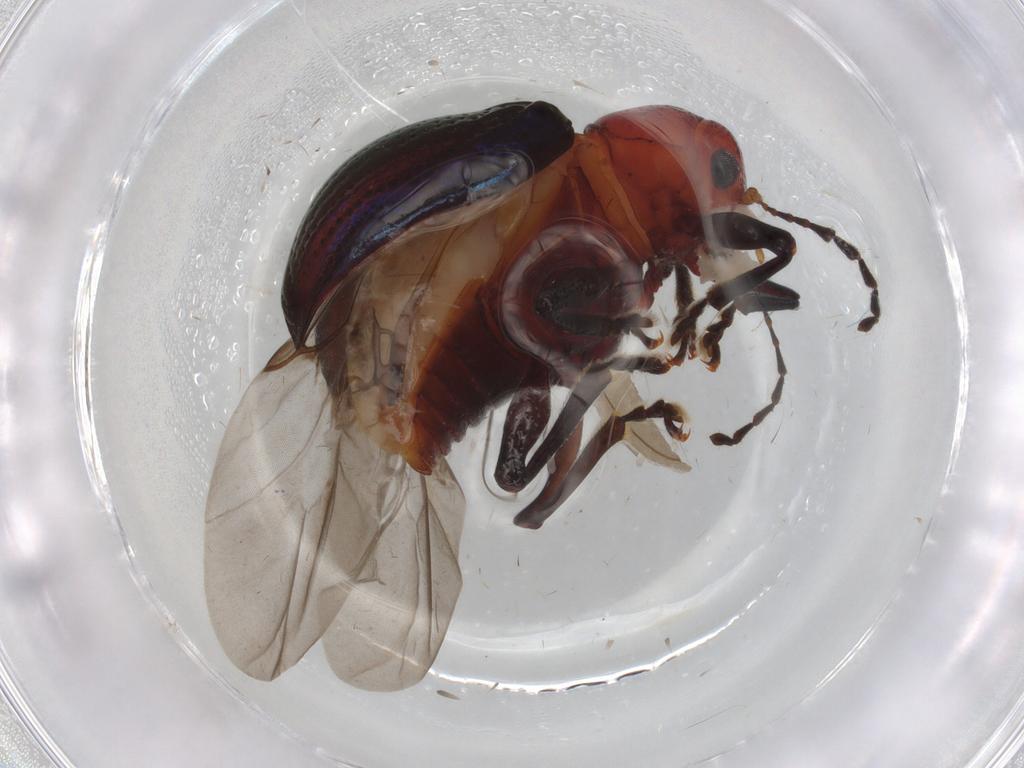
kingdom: Animalia
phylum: Arthropoda
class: Insecta
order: Coleoptera
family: Chrysomelidae
